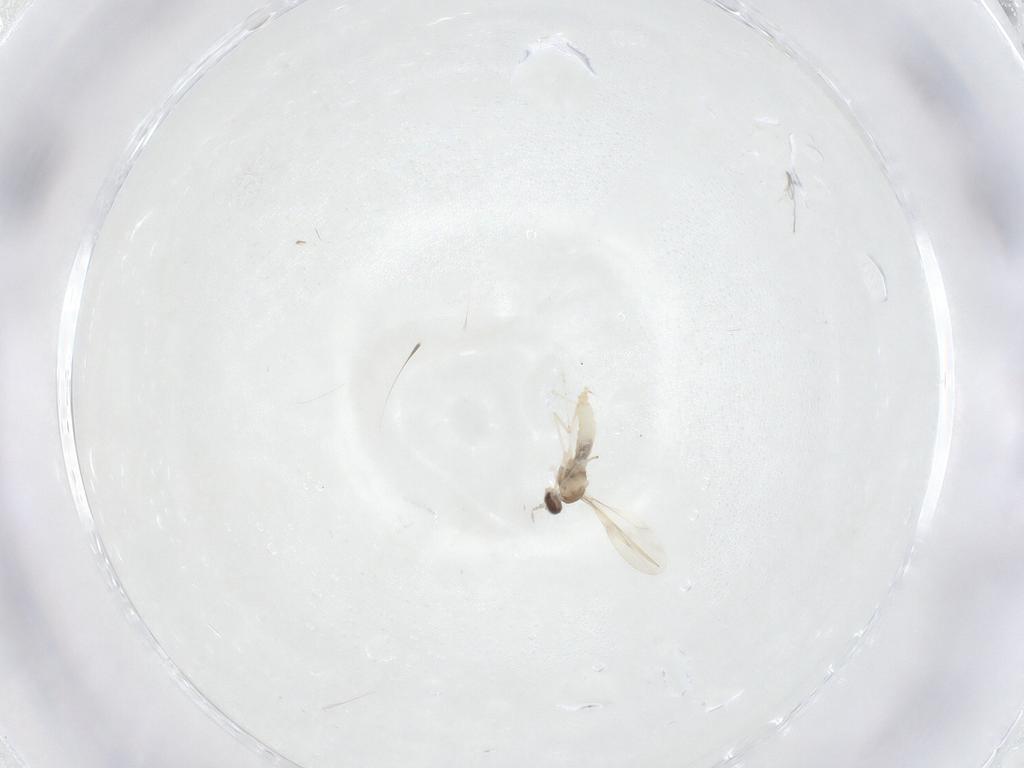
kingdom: Animalia
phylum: Arthropoda
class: Insecta
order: Diptera
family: Cecidomyiidae
